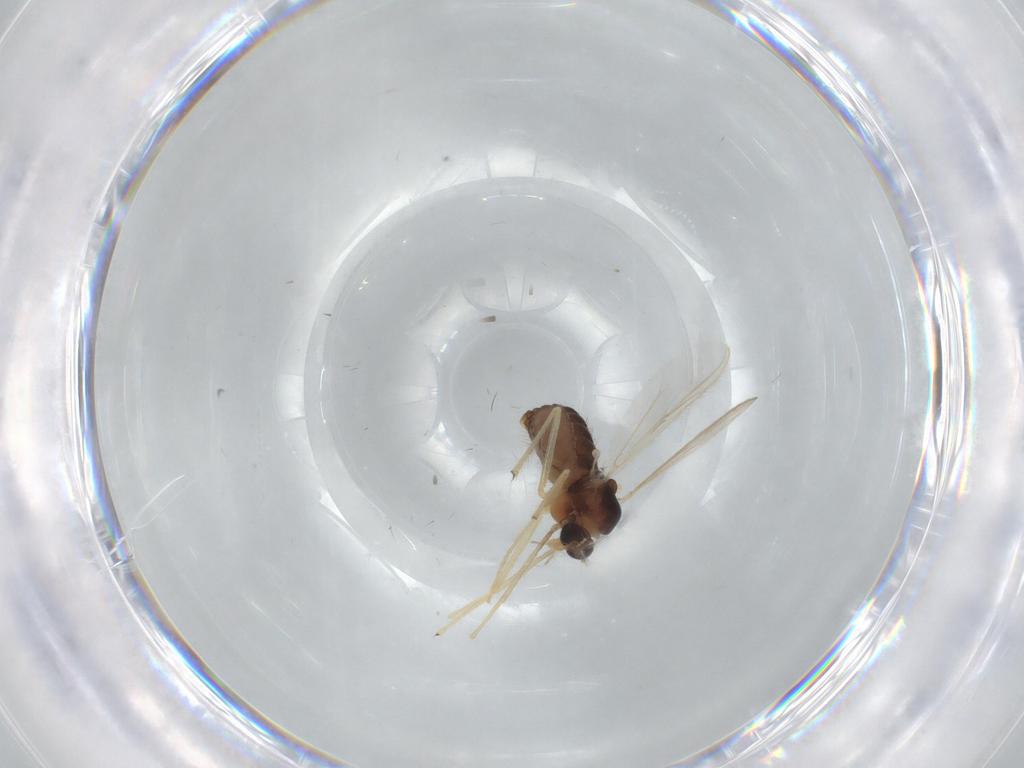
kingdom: Animalia
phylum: Arthropoda
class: Insecta
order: Diptera
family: Chironomidae
